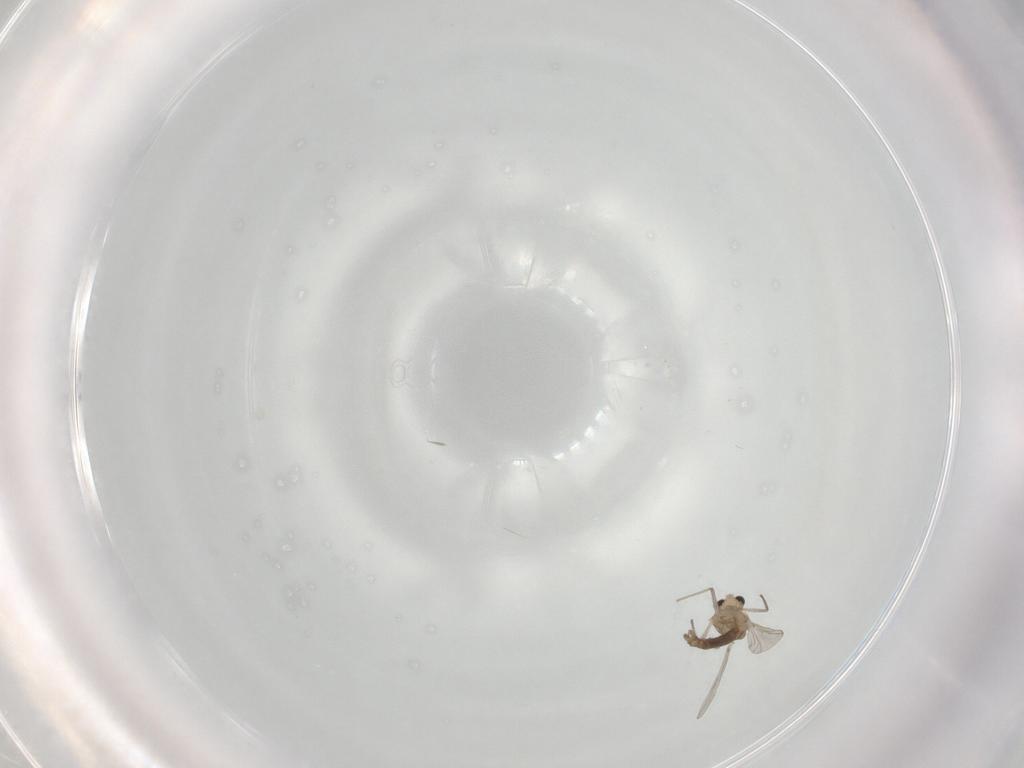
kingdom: Animalia
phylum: Arthropoda
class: Insecta
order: Diptera
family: Chironomidae
